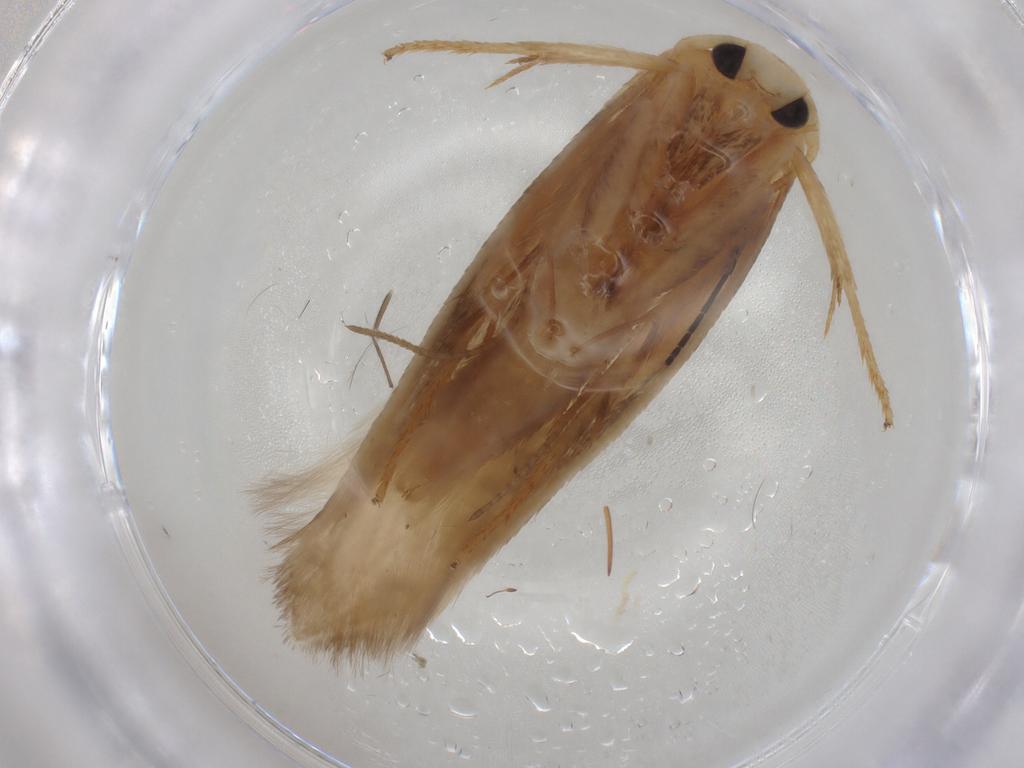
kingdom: Animalia
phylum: Arthropoda
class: Insecta
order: Lepidoptera
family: Geometridae
